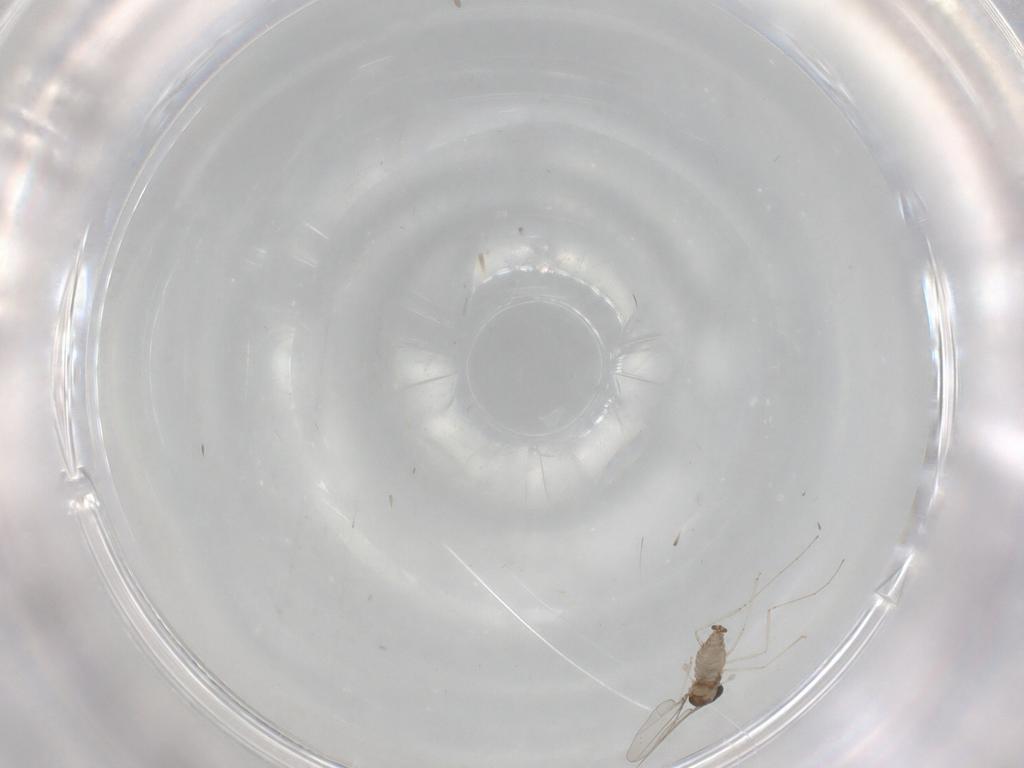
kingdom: Animalia
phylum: Arthropoda
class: Insecta
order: Diptera
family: Cecidomyiidae
